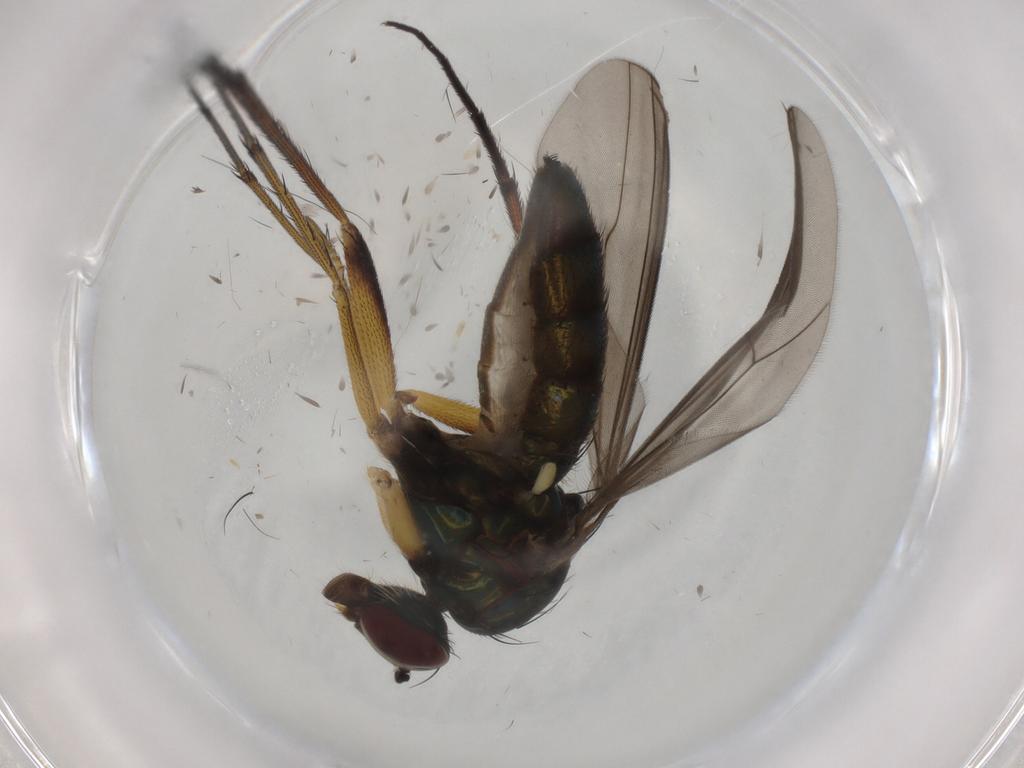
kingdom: Animalia
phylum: Arthropoda
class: Insecta
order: Diptera
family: Dolichopodidae
